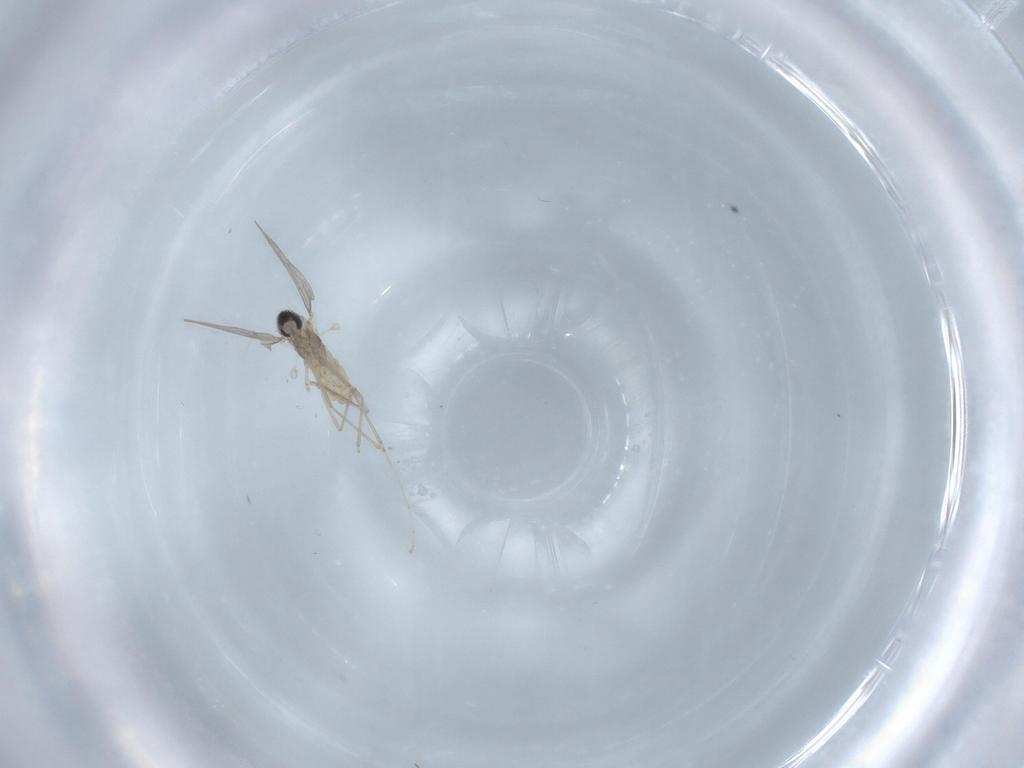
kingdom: Animalia
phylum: Arthropoda
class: Insecta
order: Diptera
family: Cecidomyiidae
